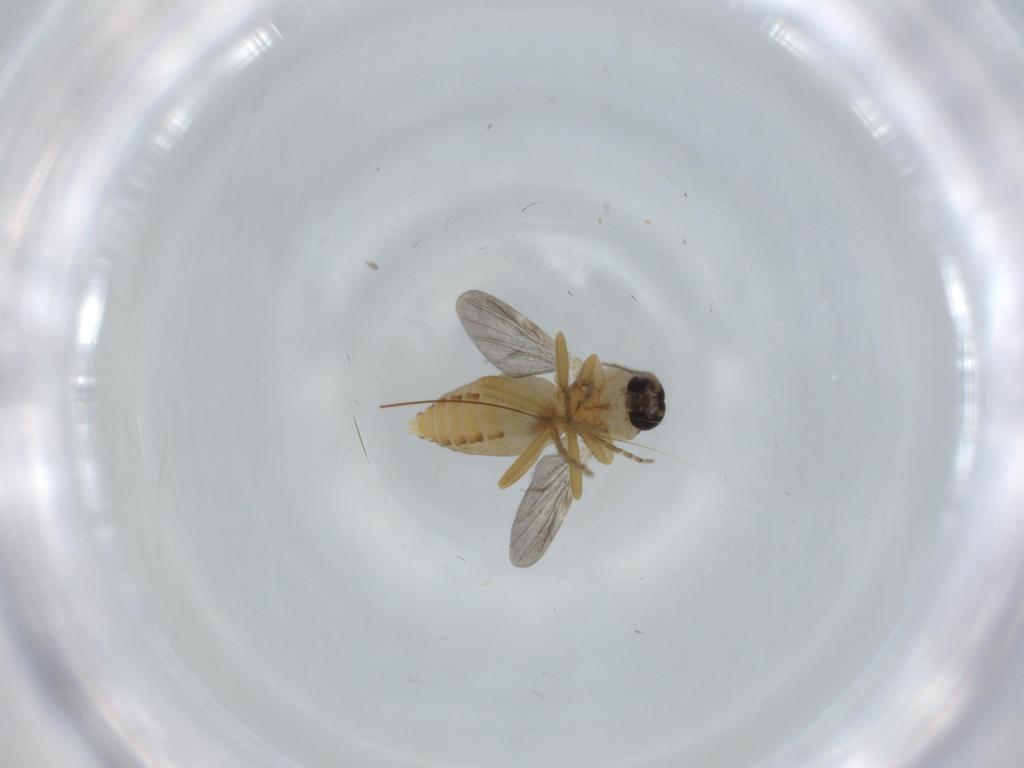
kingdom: Animalia
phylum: Arthropoda
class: Insecta
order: Diptera
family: Ceratopogonidae
